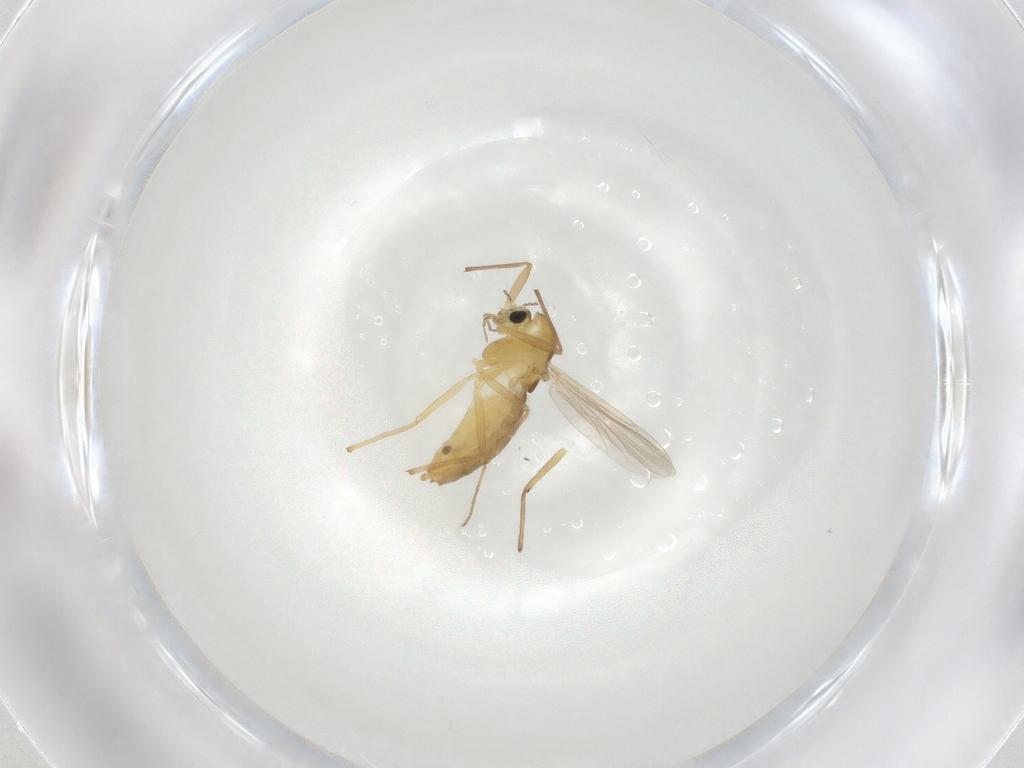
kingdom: Animalia
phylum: Arthropoda
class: Insecta
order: Diptera
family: Chironomidae
